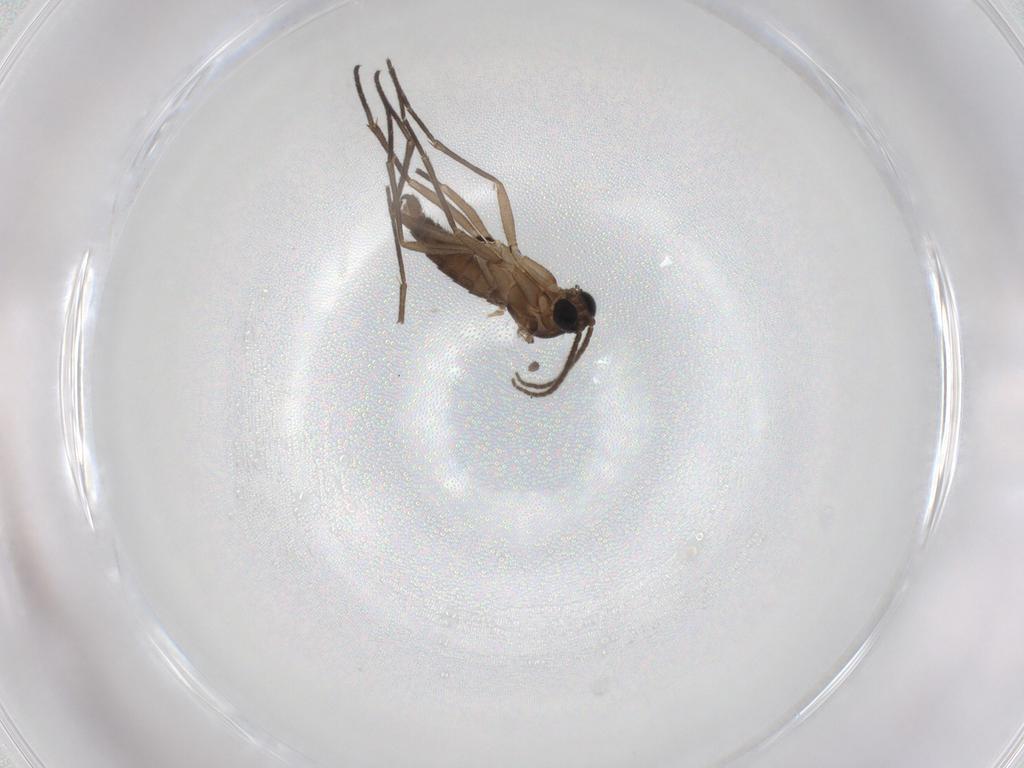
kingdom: Animalia
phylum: Arthropoda
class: Insecta
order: Diptera
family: Sciaridae
